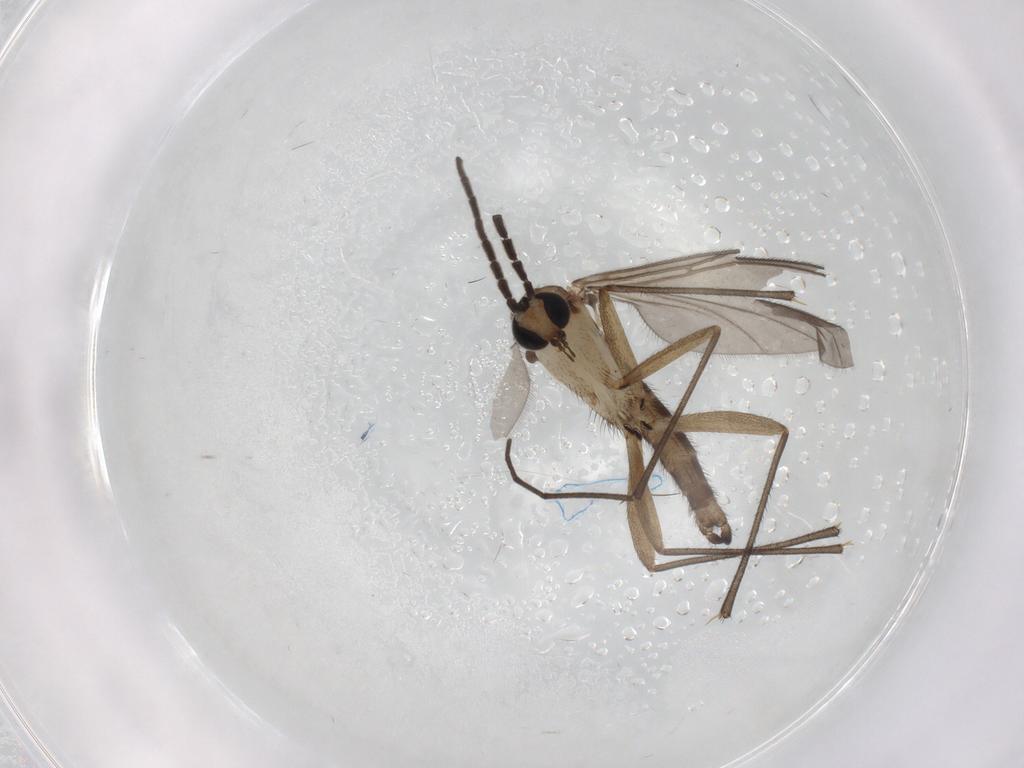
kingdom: Animalia
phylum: Arthropoda
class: Insecta
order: Diptera
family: Sciaridae
